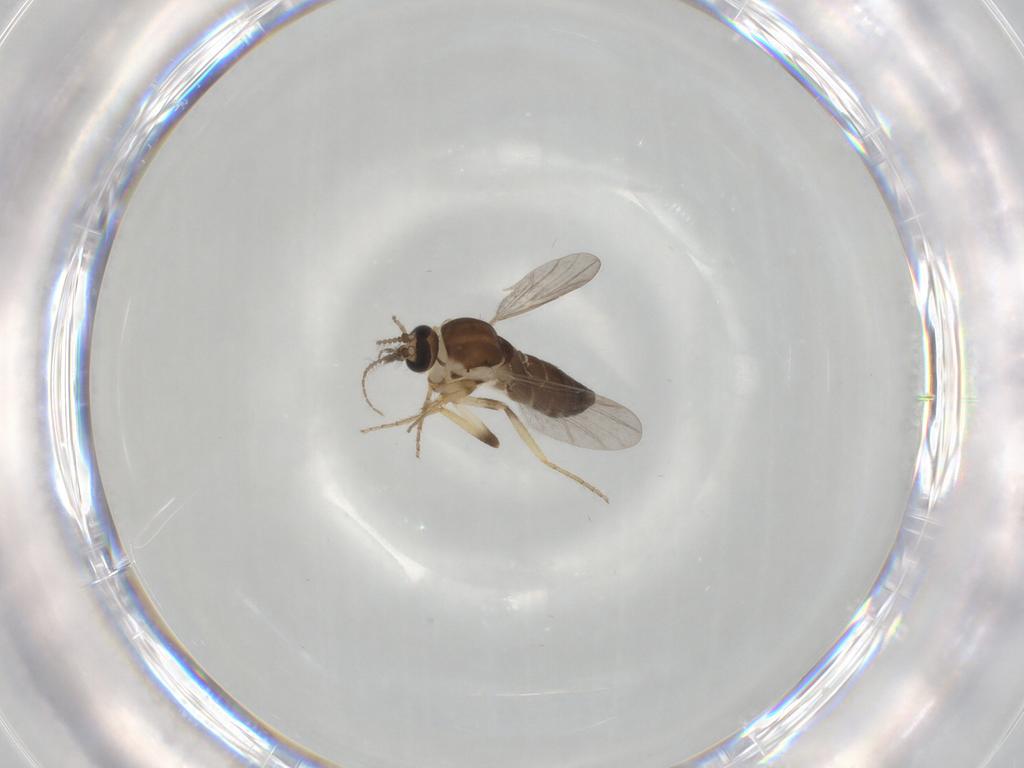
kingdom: Animalia
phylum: Arthropoda
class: Insecta
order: Diptera
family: Ceratopogonidae
